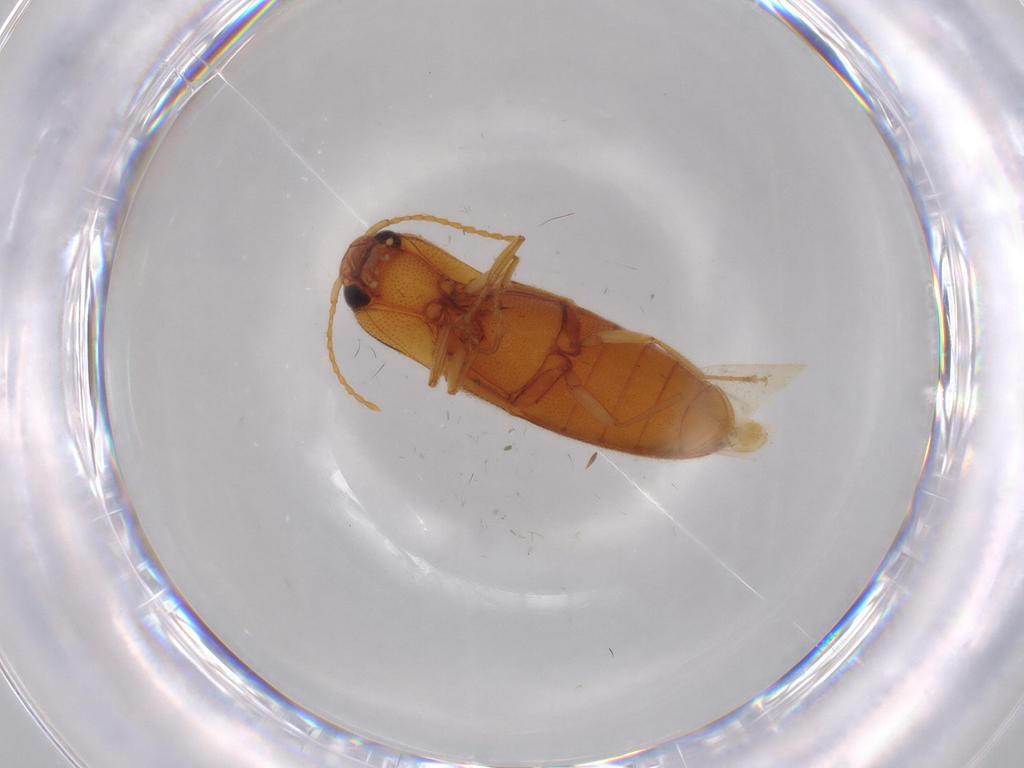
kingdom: Animalia
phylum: Arthropoda
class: Insecta
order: Coleoptera
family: Elateridae
